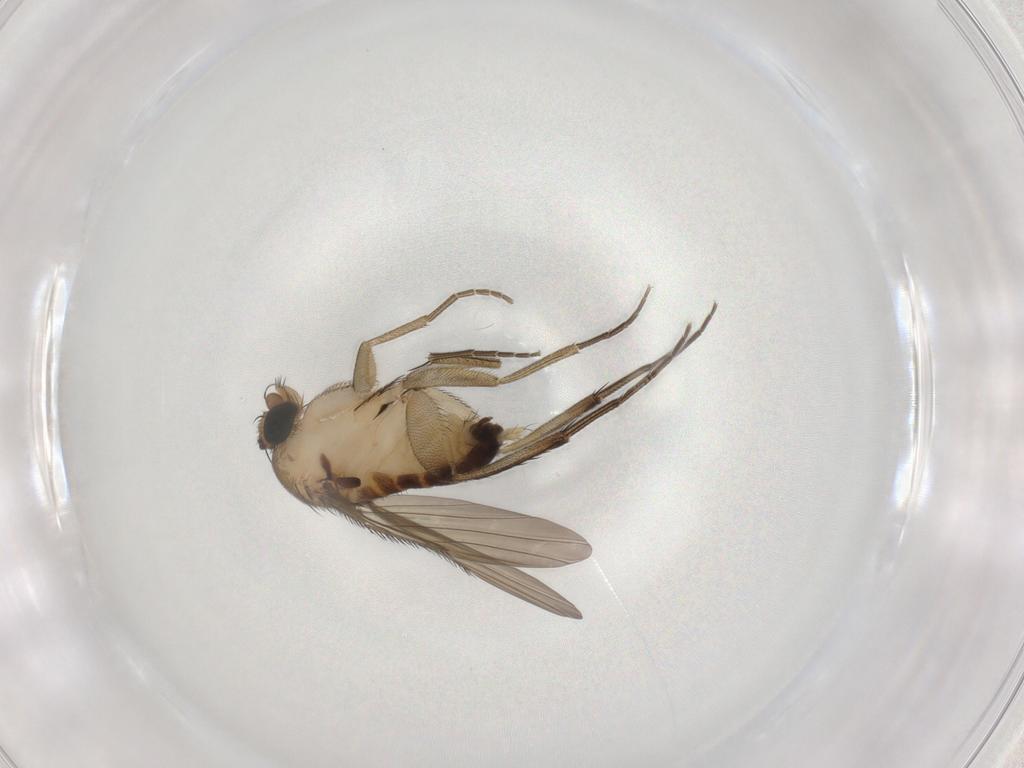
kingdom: Animalia
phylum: Arthropoda
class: Insecta
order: Diptera
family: Phoridae
